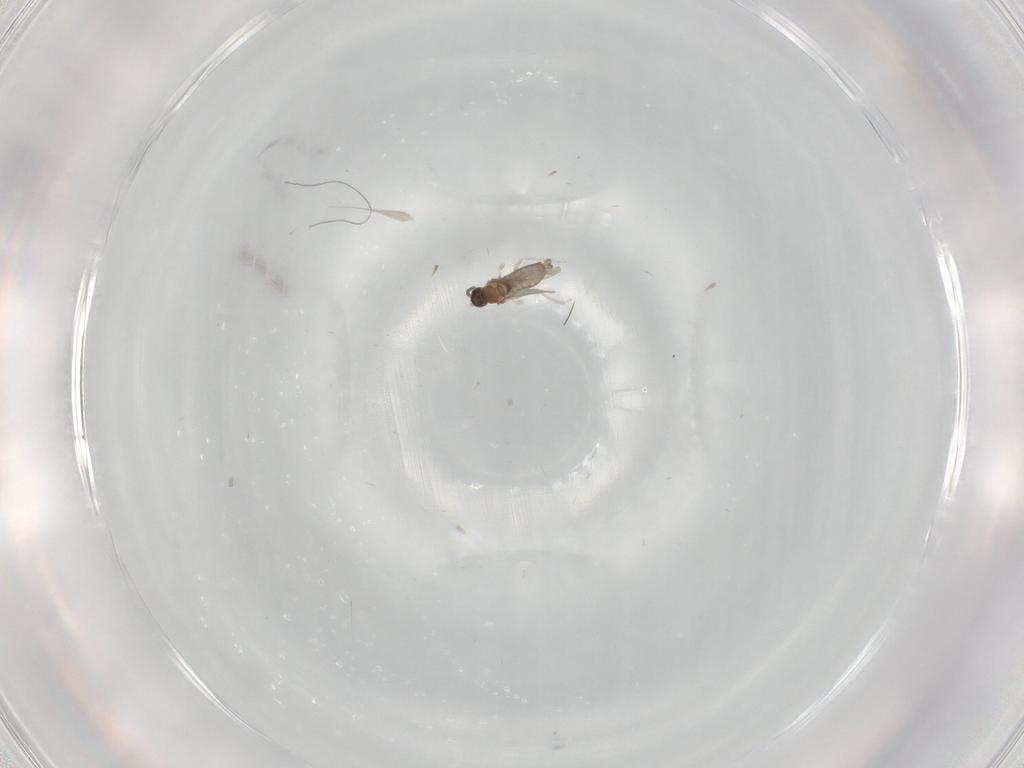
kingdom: Animalia
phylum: Arthropoda
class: Insecta
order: Diptera
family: Cecidomyiidae
